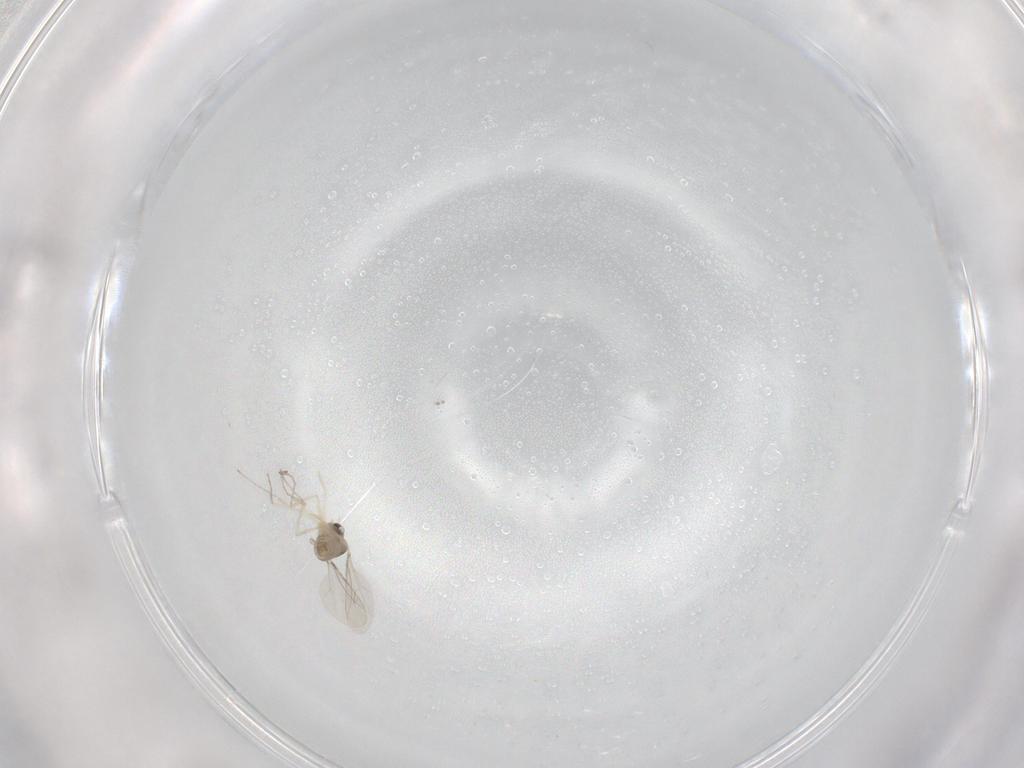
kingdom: Animalia
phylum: Arthropoda
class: Insecta
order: Diptera
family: Cecidomyiidae
